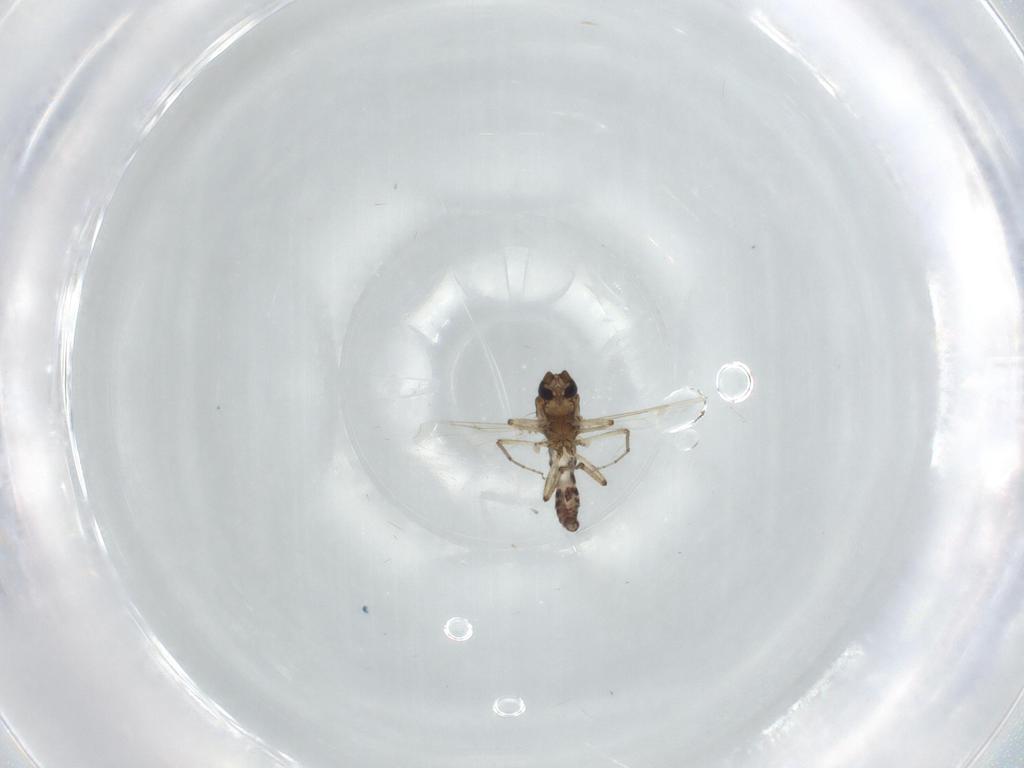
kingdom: Animalia
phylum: Arthropoda
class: Insecta
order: Diptera
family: Ceratopogonidae
